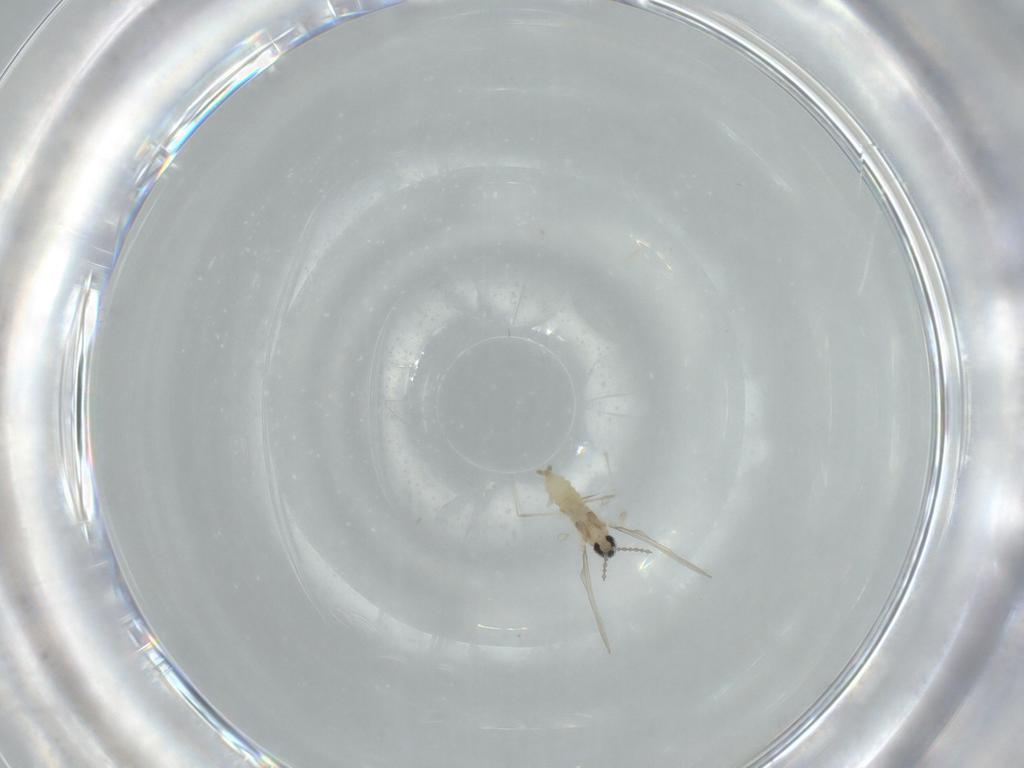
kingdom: Animalia
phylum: Arthropoda
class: Insecta
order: Diptera
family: Cecidomyiidae
